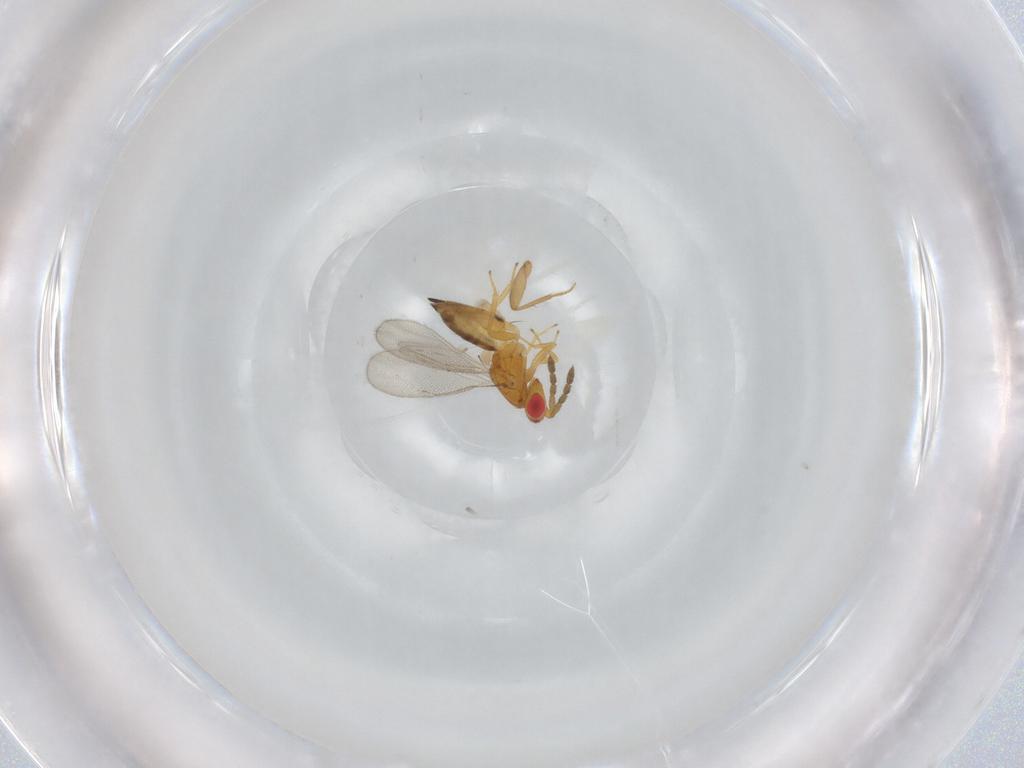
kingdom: Animalia
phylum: Arthropoda
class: Insecta
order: Hymenoptera
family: Eulophidae
